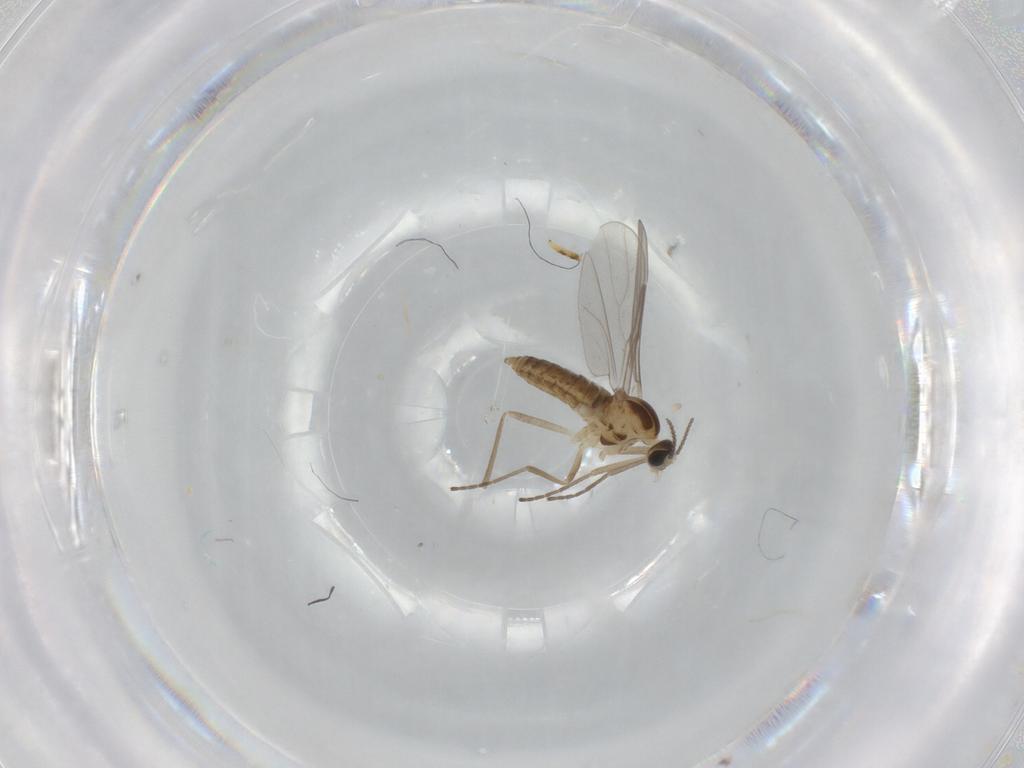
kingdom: Animalia
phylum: Arthropoda
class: Insecta
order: Diptera
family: Cecidomyiidae
